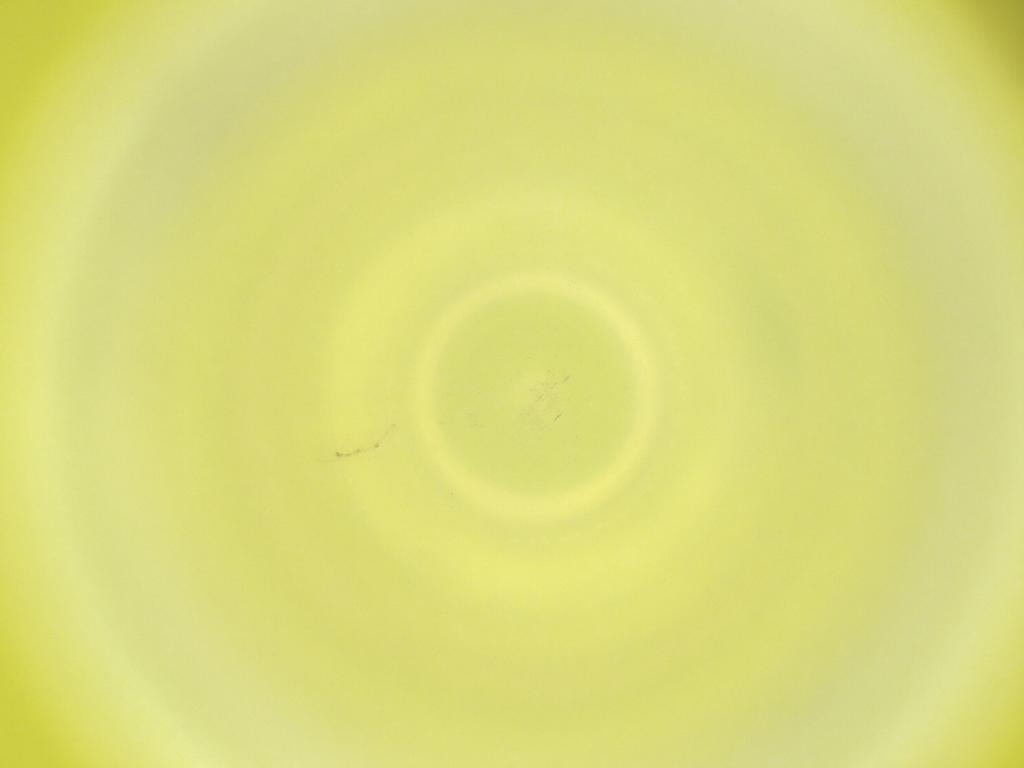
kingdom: Animalia
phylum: Arthropoda
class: Insecta
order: Diptera
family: Cecidomyiidae
